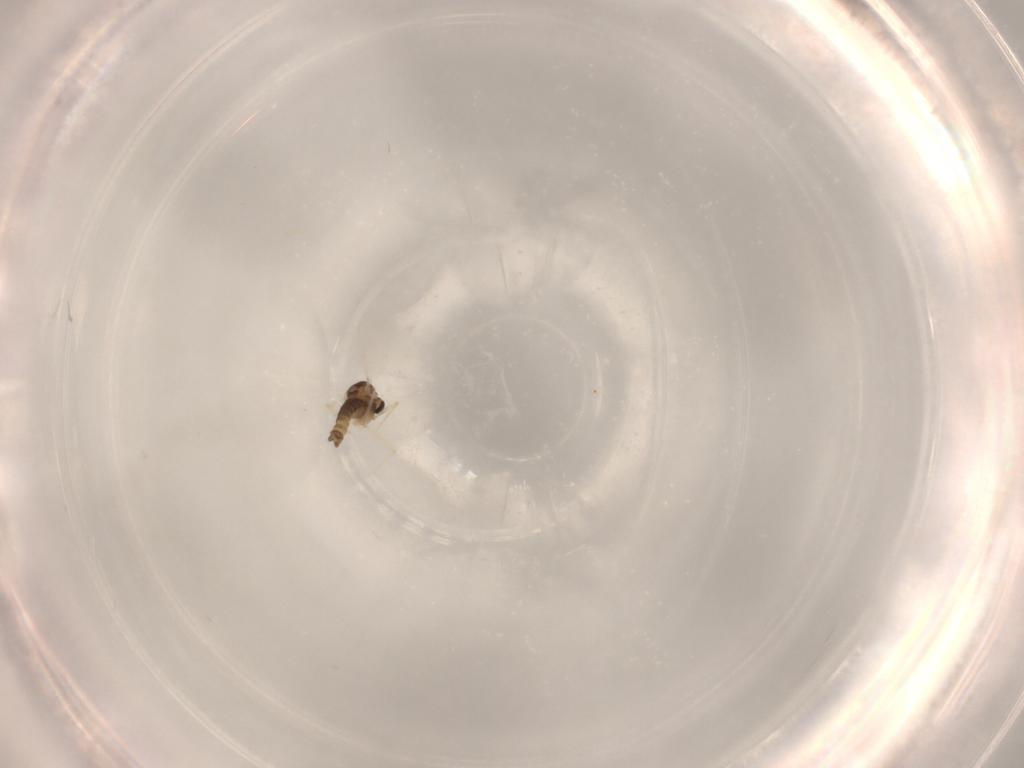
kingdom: Animalia
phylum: Arthropoda
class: Insecta
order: Diptera
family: Chironomidae
